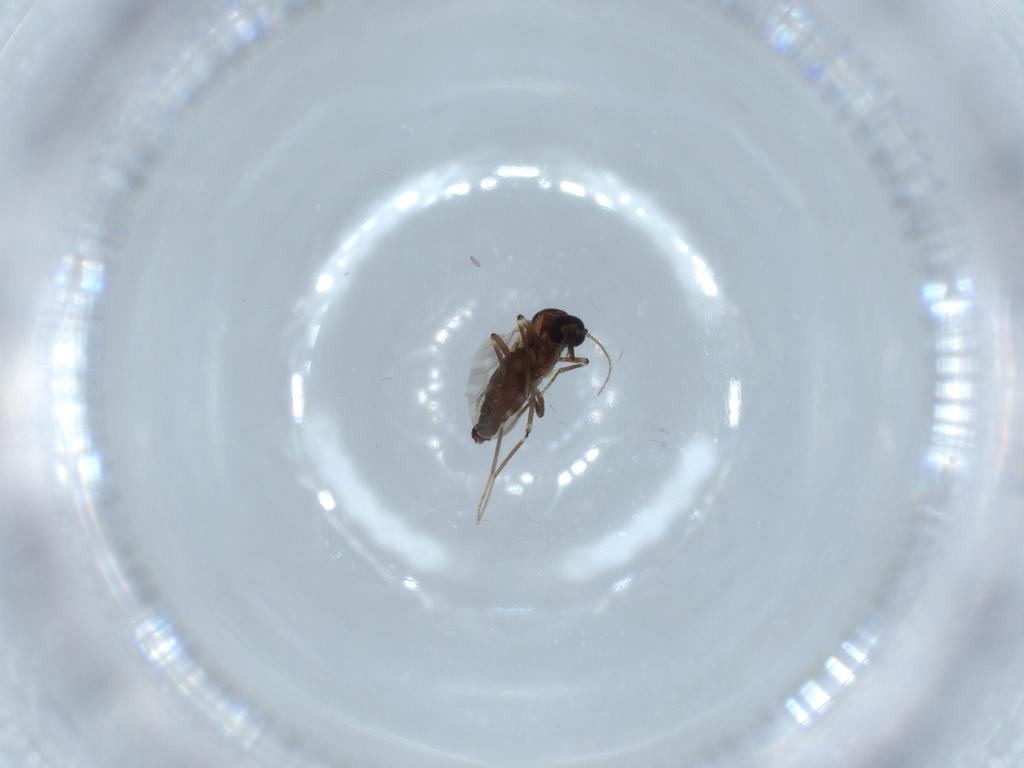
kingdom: Animalia
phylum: Arthropoda
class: Insecta
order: Diptera
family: Ceratopogonidae
